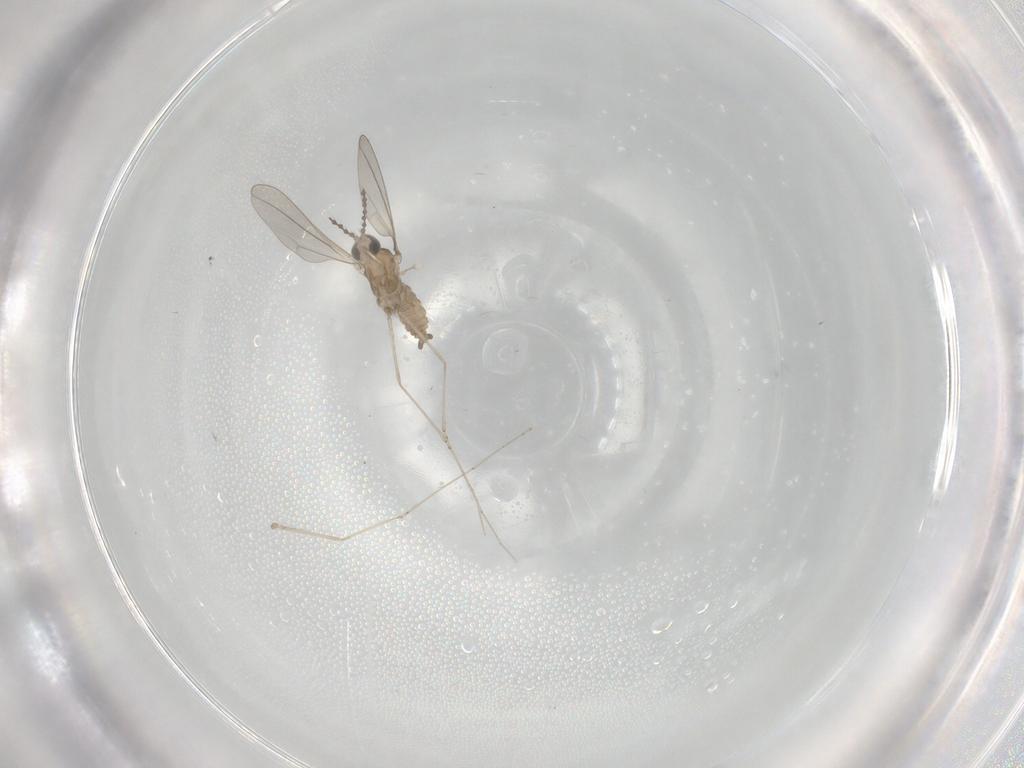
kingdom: Animalia
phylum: Arthropoda
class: Insecta
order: Diptera
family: Cecidomyiidae
